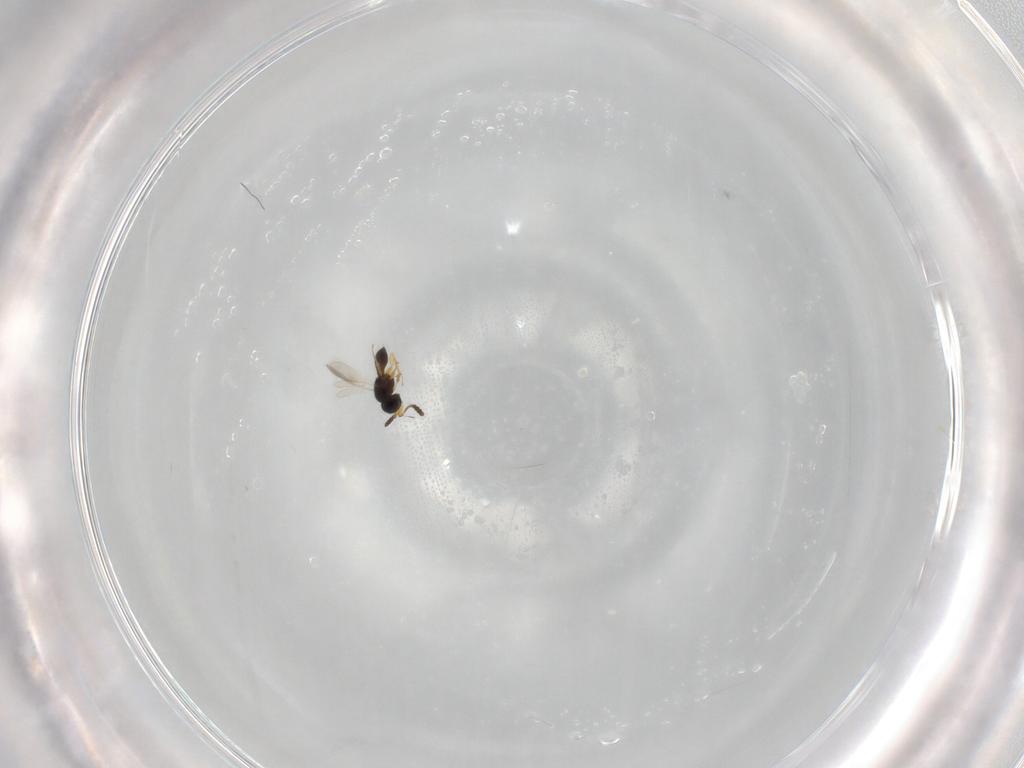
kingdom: Animalia
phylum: Arthropoda
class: Insecta
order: Hymenoptera
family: Scelionidae
